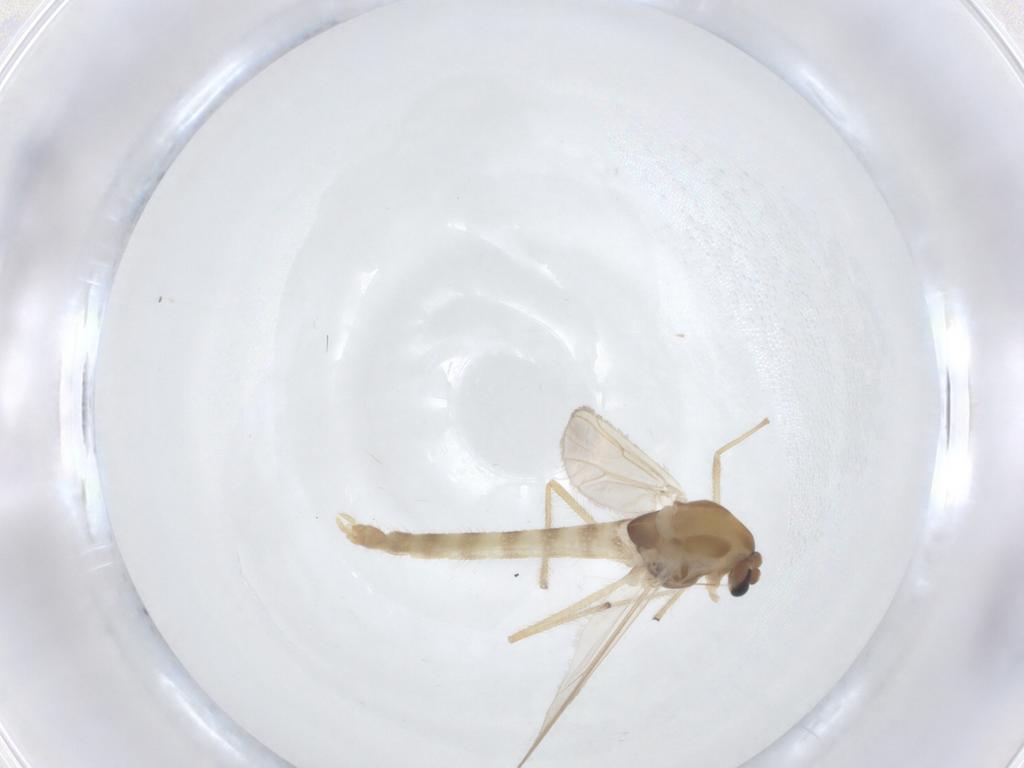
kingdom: Animalia
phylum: Arthropoda
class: Insecta
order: Diptera
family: Chironomidae
